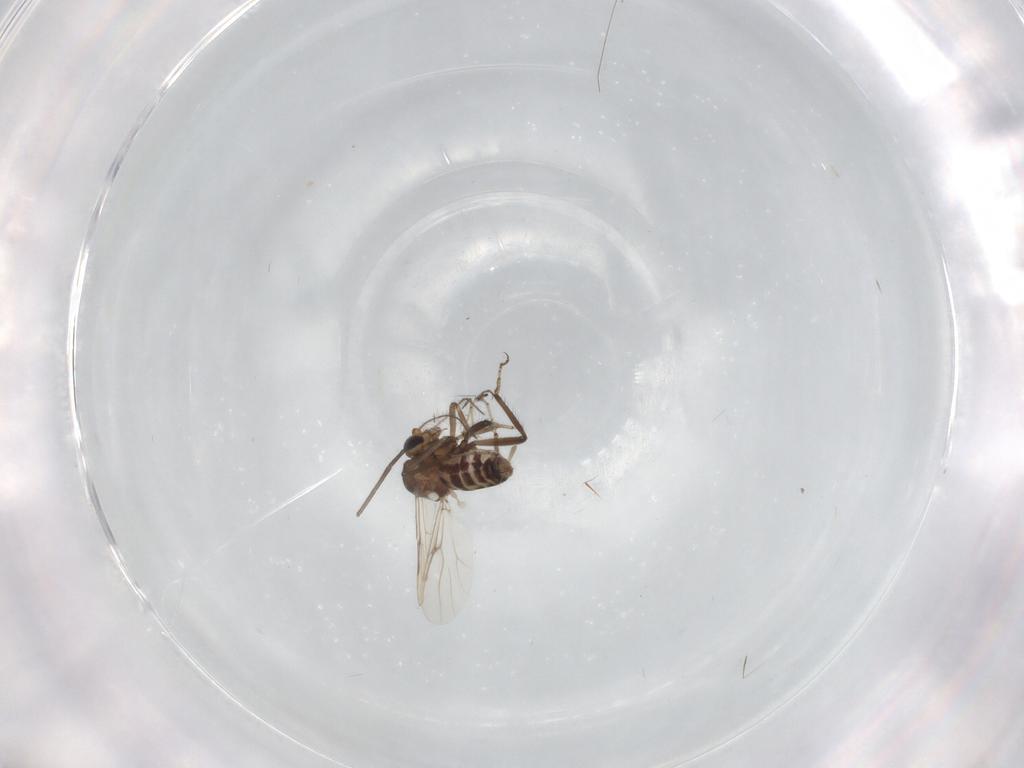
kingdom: Animalia
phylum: Arthropoda
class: Insecta
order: Diptera
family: Ceratopogonidae
